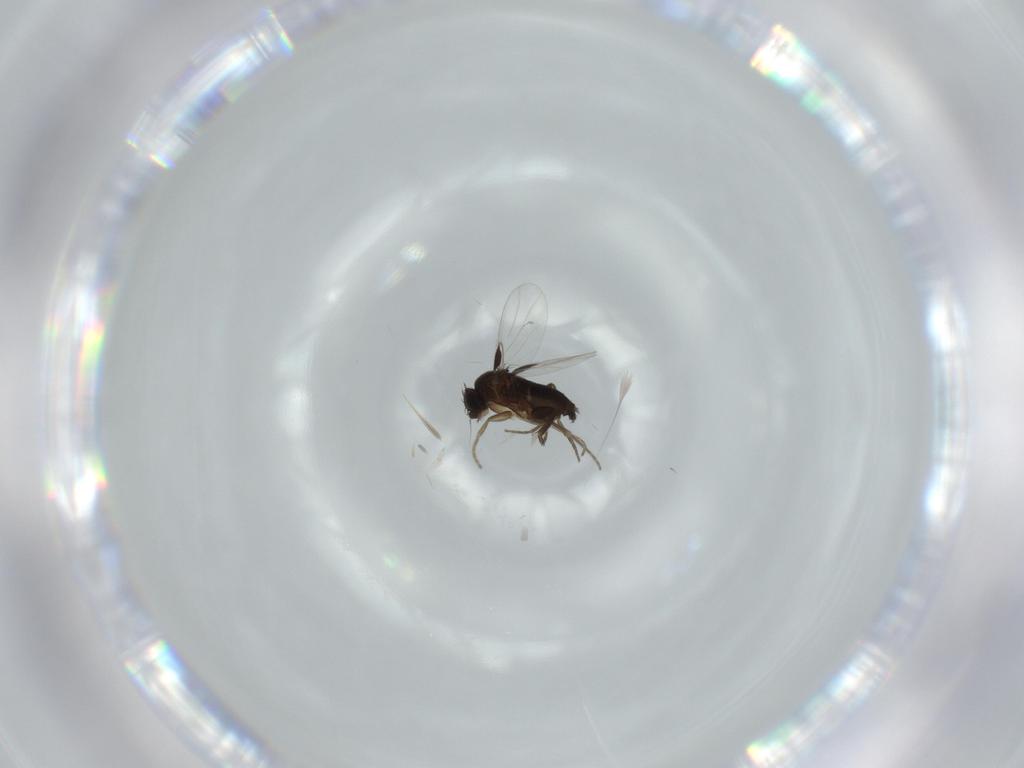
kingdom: Animalia
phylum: Arthropoda
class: Insecta
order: Diptera
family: Phoridae
